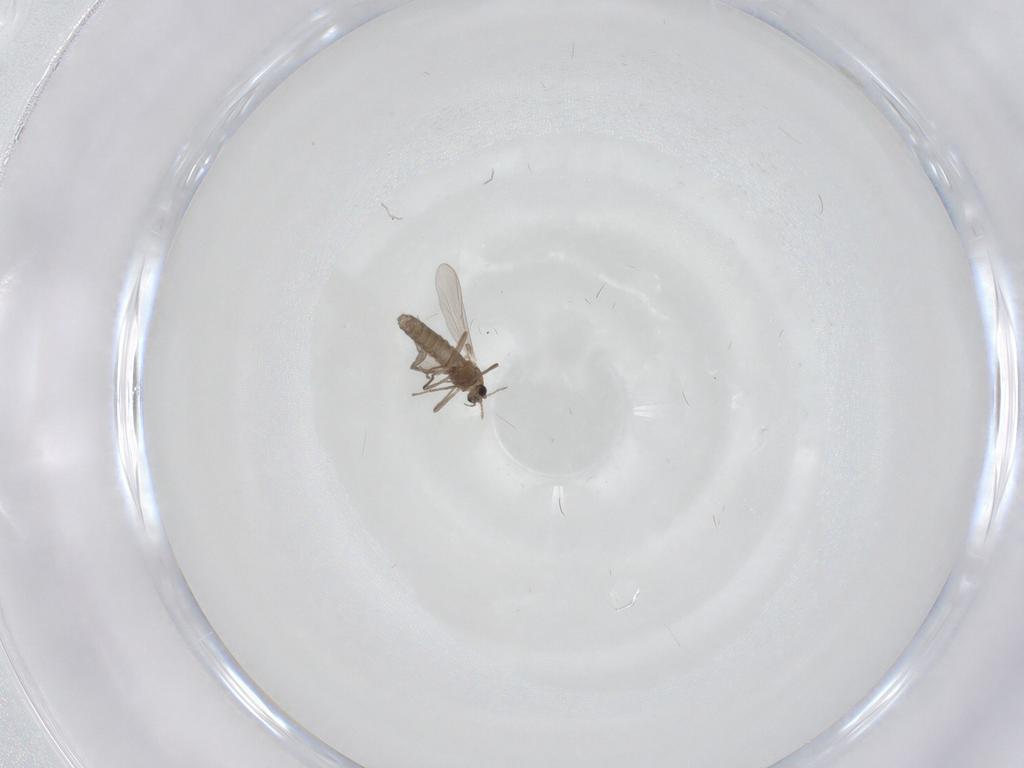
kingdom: Animalia
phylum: Arthropoda
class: Insecta
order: Diptera
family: Chironomidae
